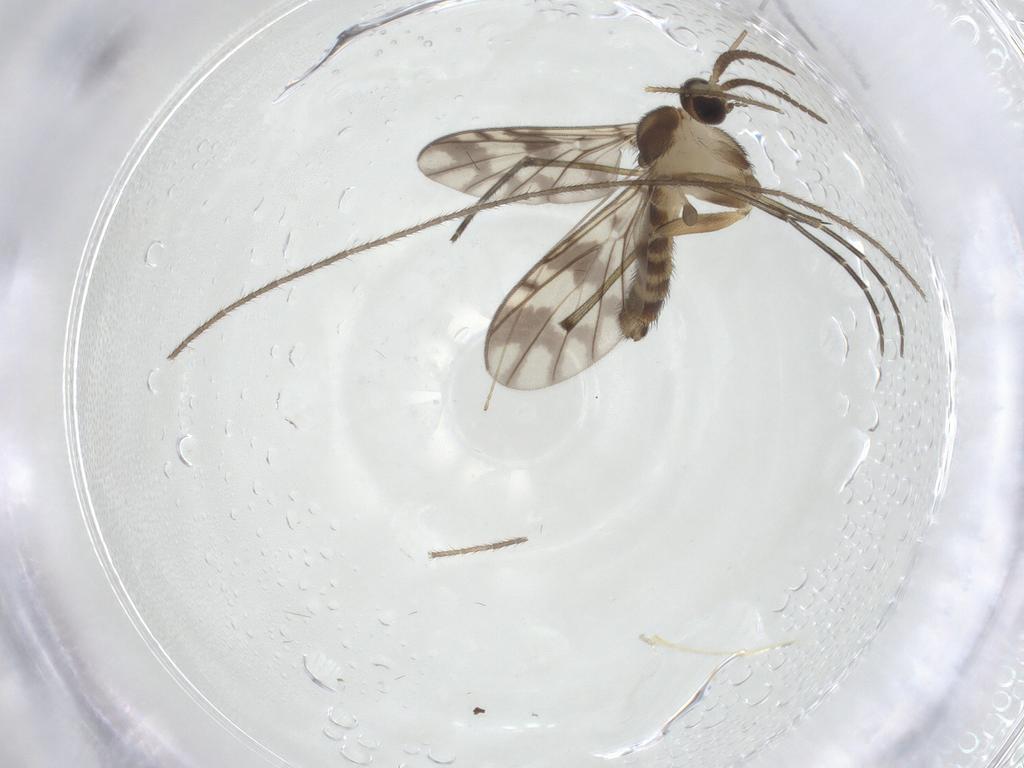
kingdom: Animalia
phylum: Arthropoda
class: Insecta
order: Diptera
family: Keroplatidae
